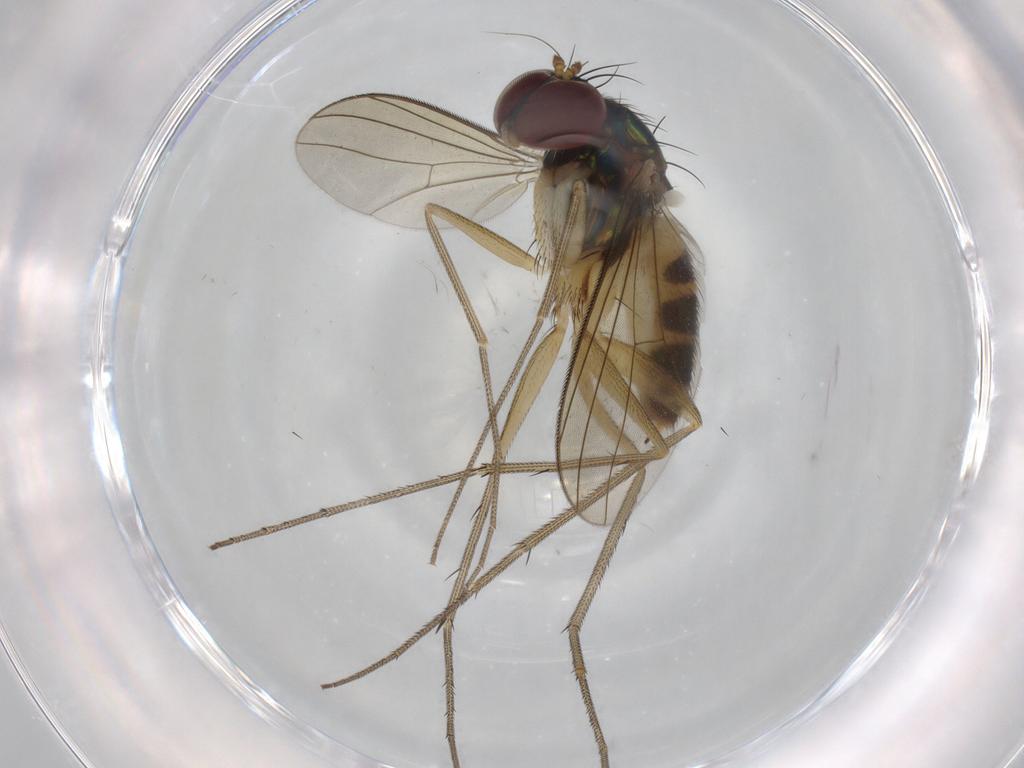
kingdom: Animalia
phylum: Arthropoda
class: Insecta
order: Diptera
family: Dolichopodidae
